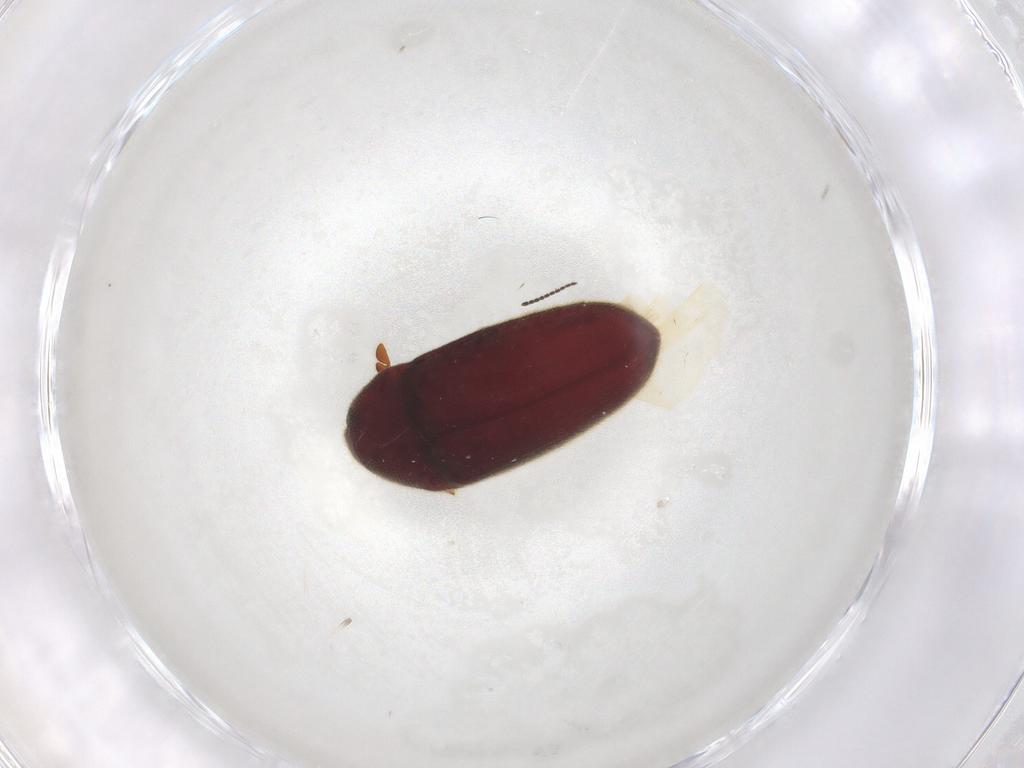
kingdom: Animalia
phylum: Arthropoda
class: Insecta
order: Coleoptera
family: Throscidae
